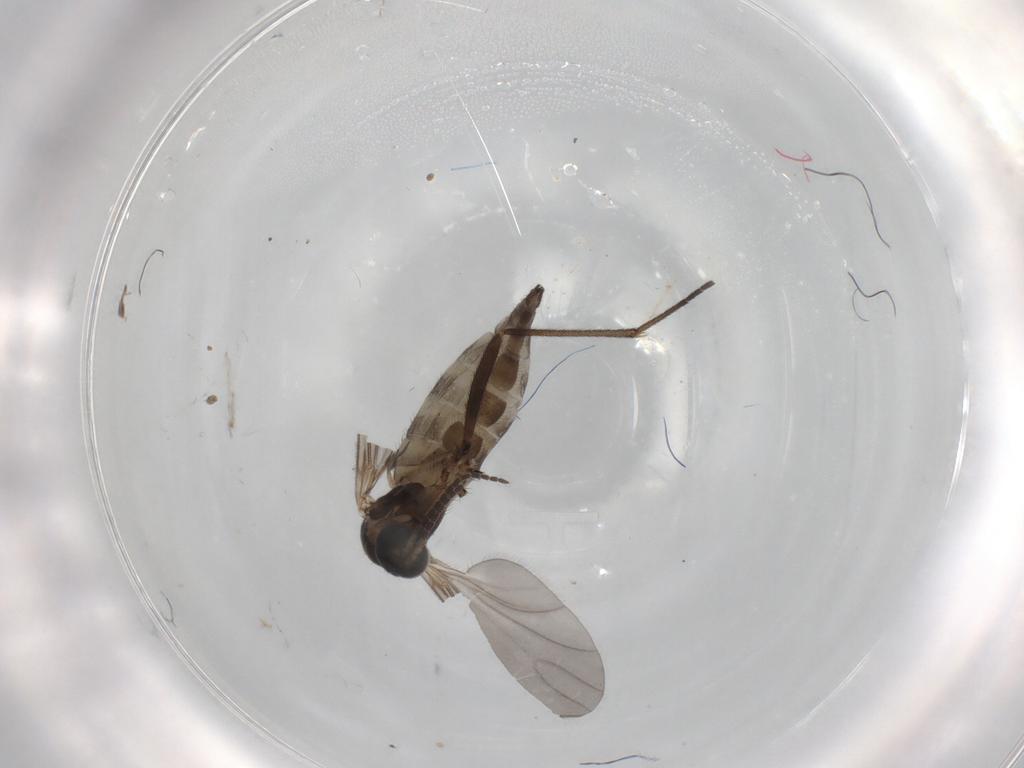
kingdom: Animalia
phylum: Arthropoda
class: Insecta
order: Diptera
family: Sciaridae
